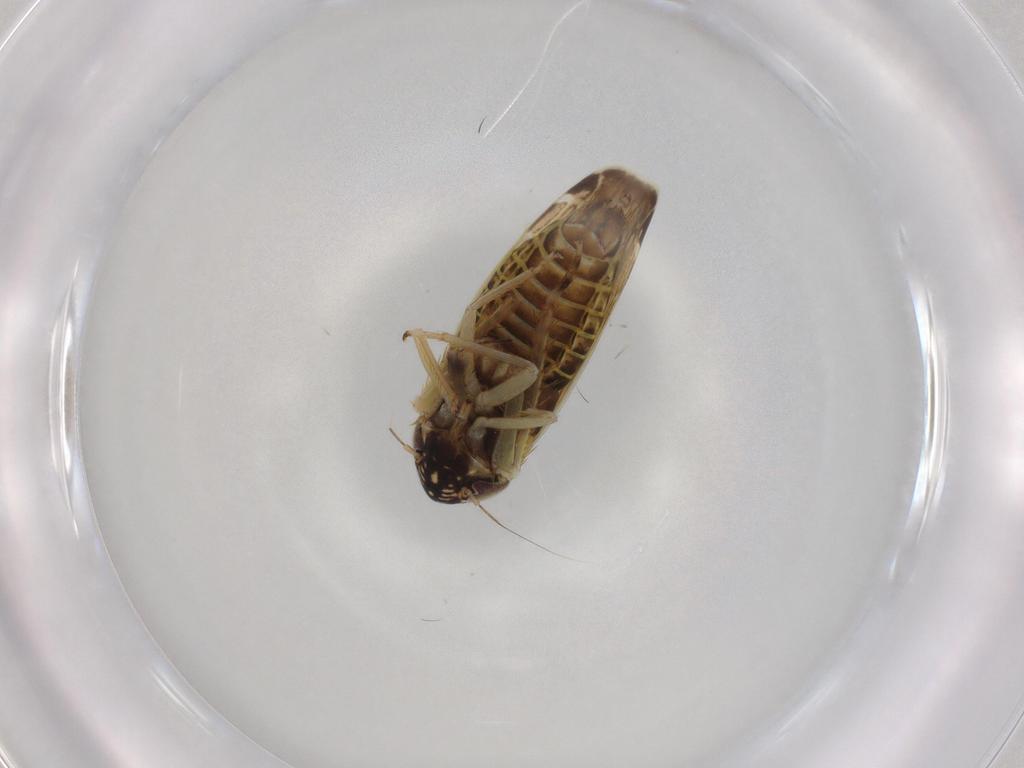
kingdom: Animalia
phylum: Arthropoda
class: Insecta
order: Hemiptera
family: Cicadellidae
